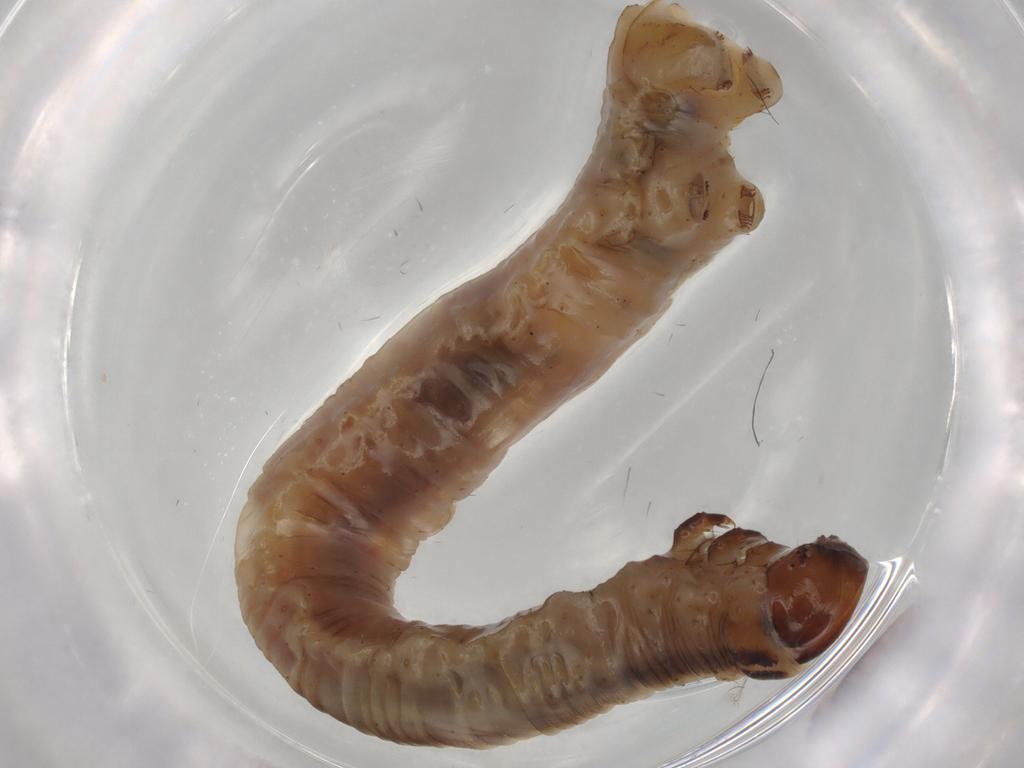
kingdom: Animalia
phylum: Arthropoda
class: Insecta
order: Lepidoptera
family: Geometridae
